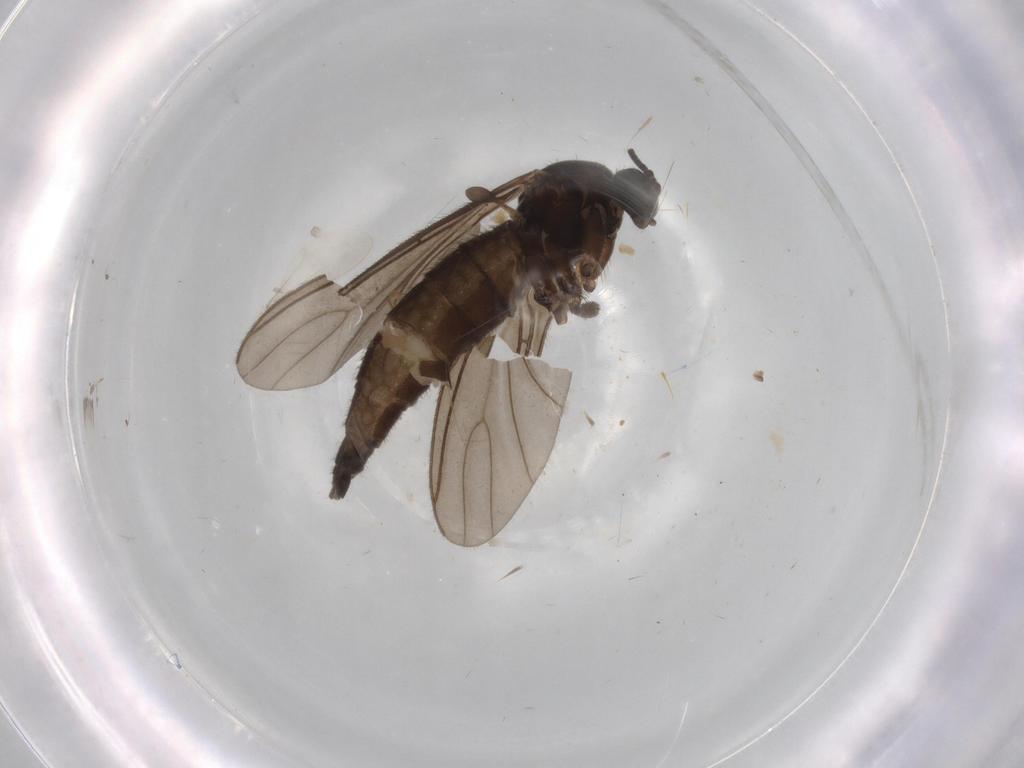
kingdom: Animalia
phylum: Arthropoda
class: Insecta
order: Diptera
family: Sciaridae
